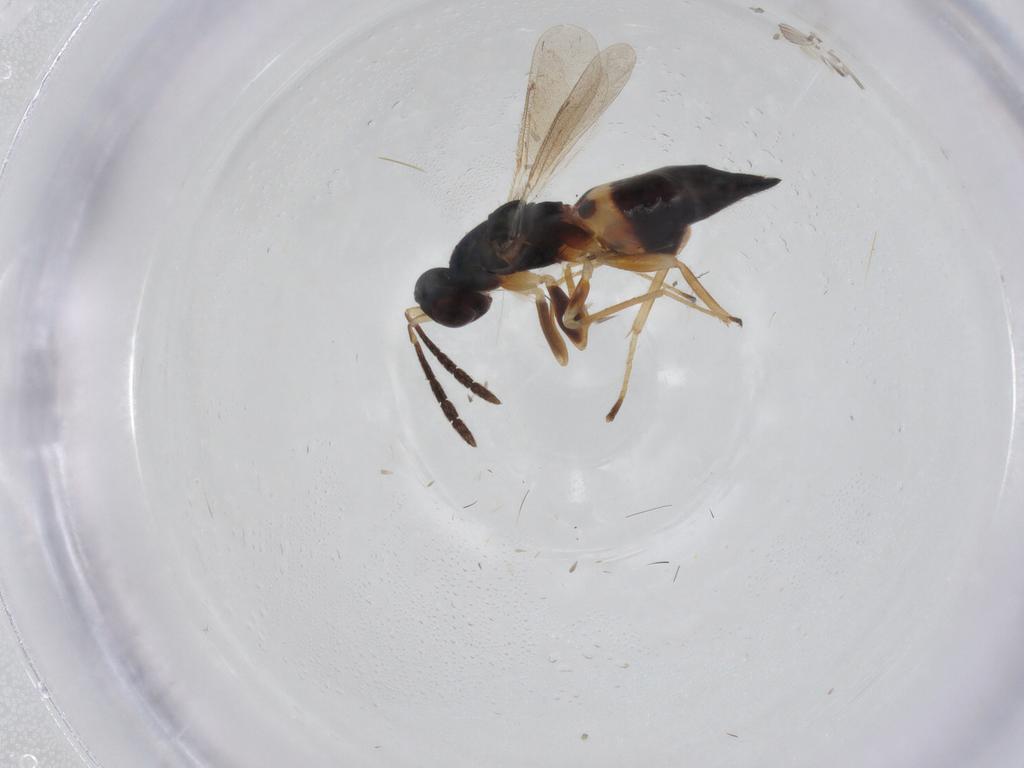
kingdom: Animalia
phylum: Arthropoda
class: Insecta
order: Hymenoptera
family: Eulophidae
